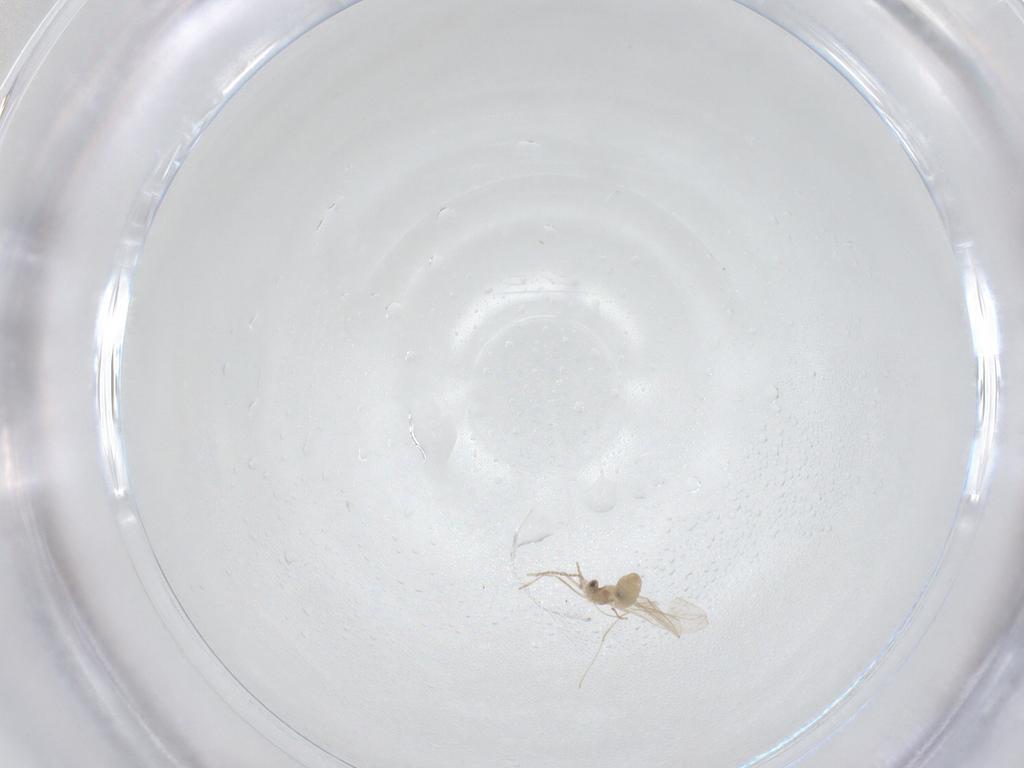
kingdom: Animalia
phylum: Arthropoda
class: Insecta
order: Diptera
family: Cecidomyiidae
